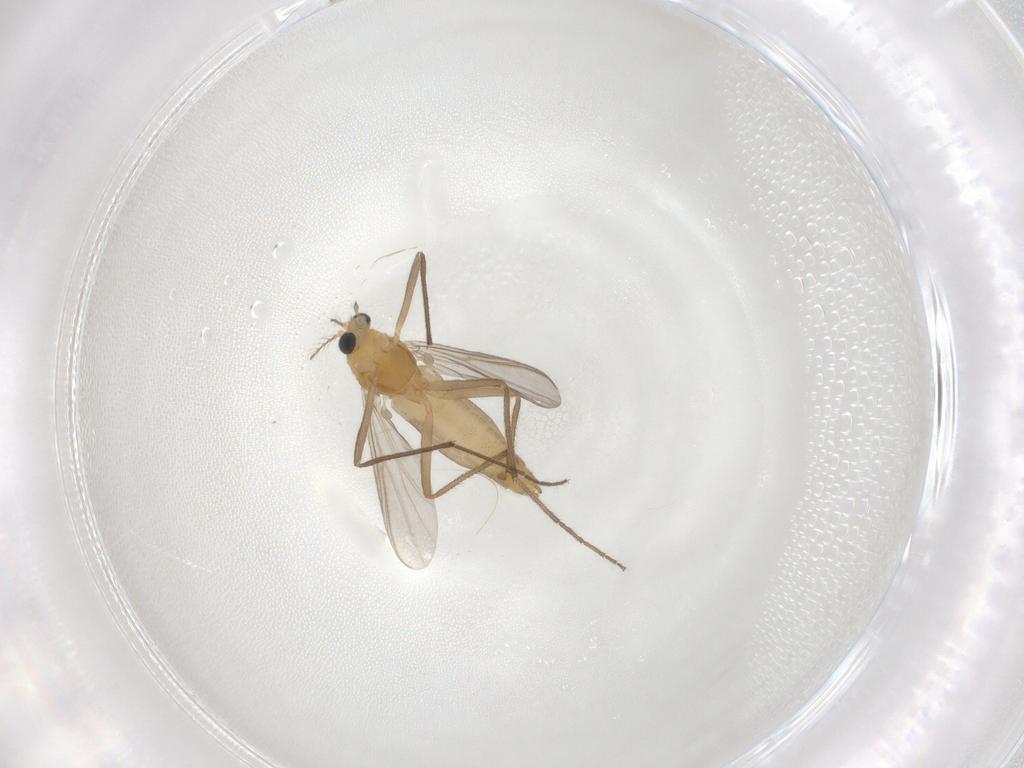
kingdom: Animalia
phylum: Arthropoda
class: Insecta
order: Diptera
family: Chironomidae
